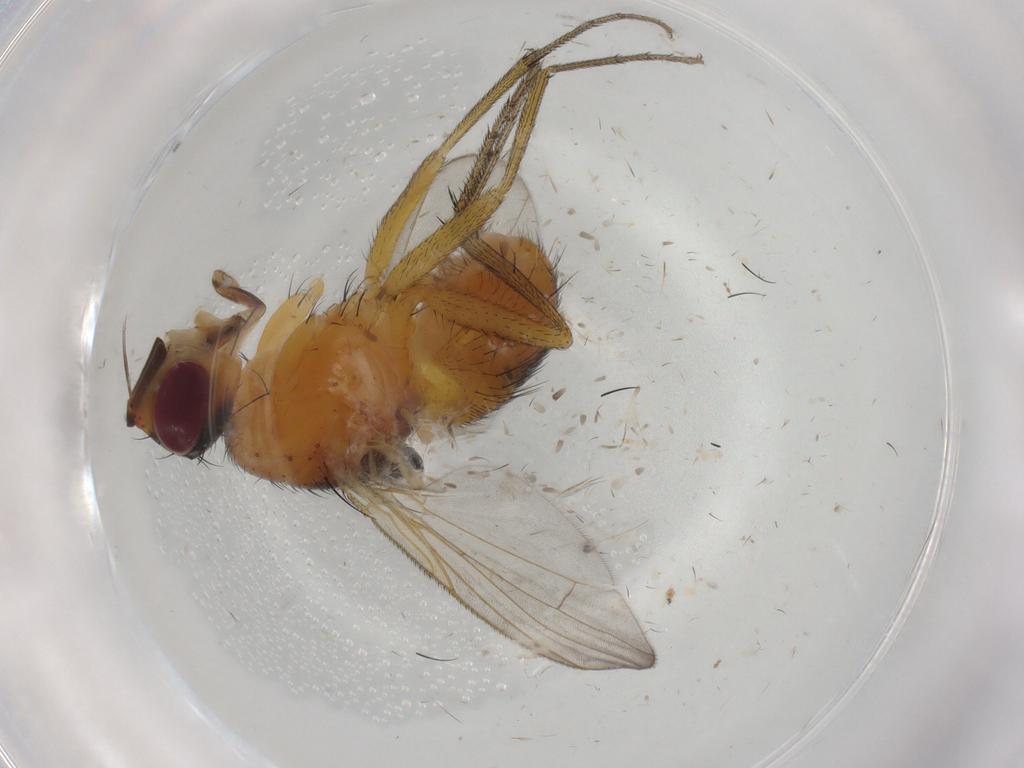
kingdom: Animalia
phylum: Arthropoda
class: Insecta
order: Diptera
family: Muscidae
